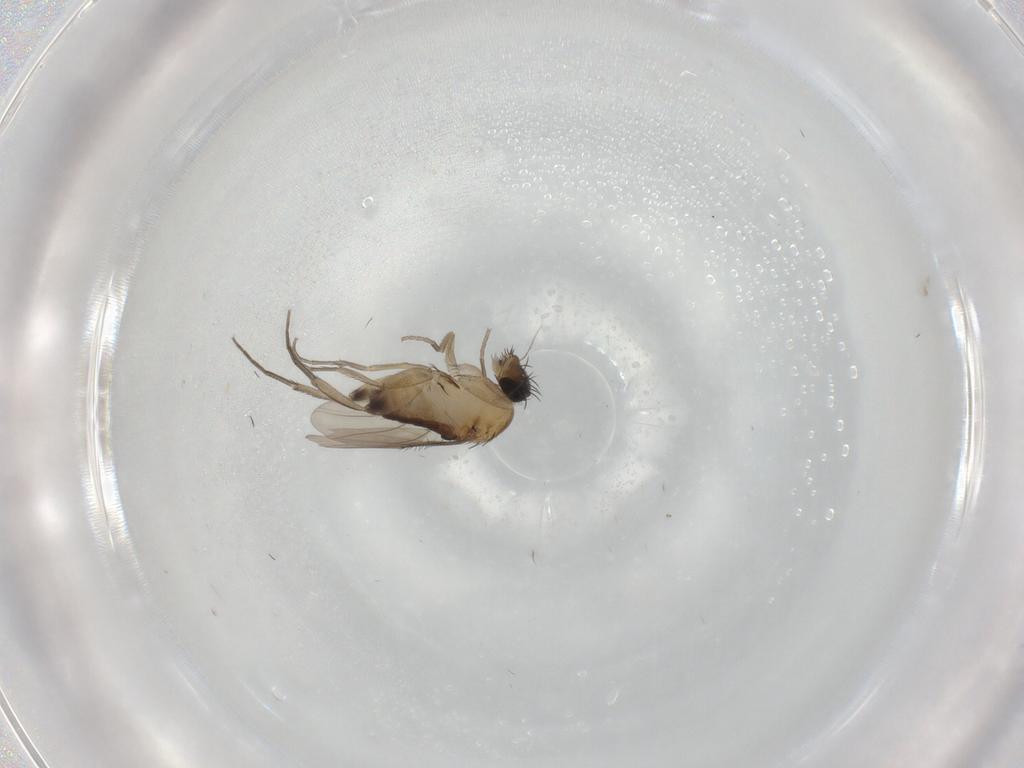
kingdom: Animalia
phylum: Arthropoda
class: Insecta
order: Diptera
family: Phoridae
